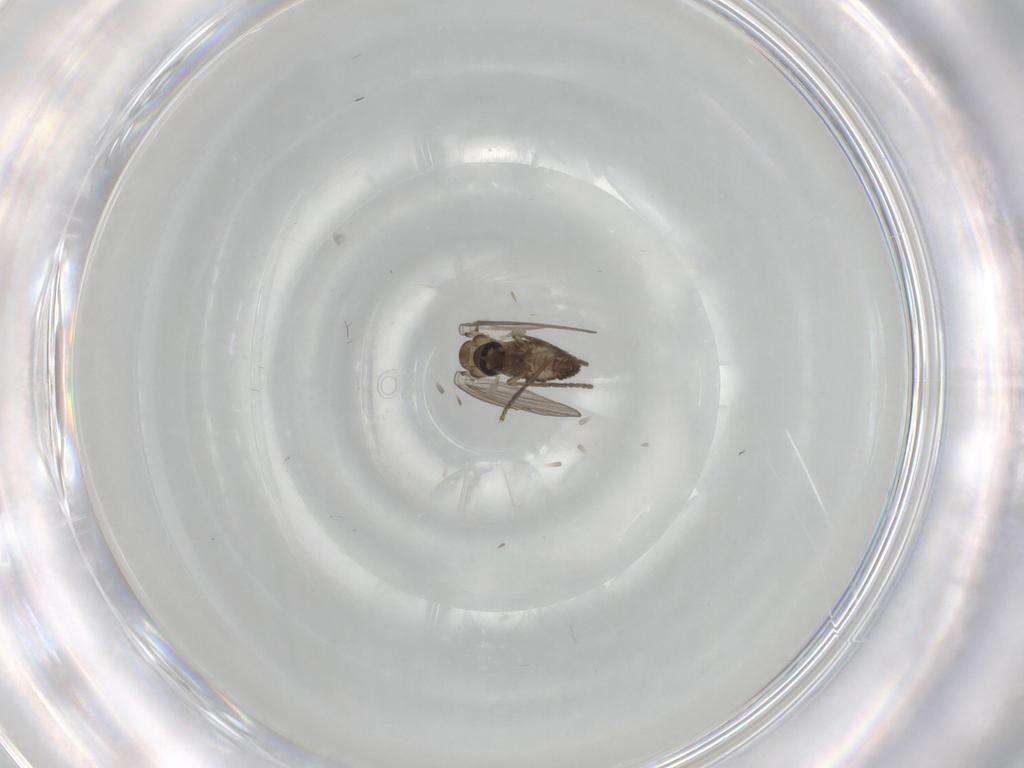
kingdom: Animalia
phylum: Arthropoda
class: Insecta
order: Diptera
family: Psychodidae
